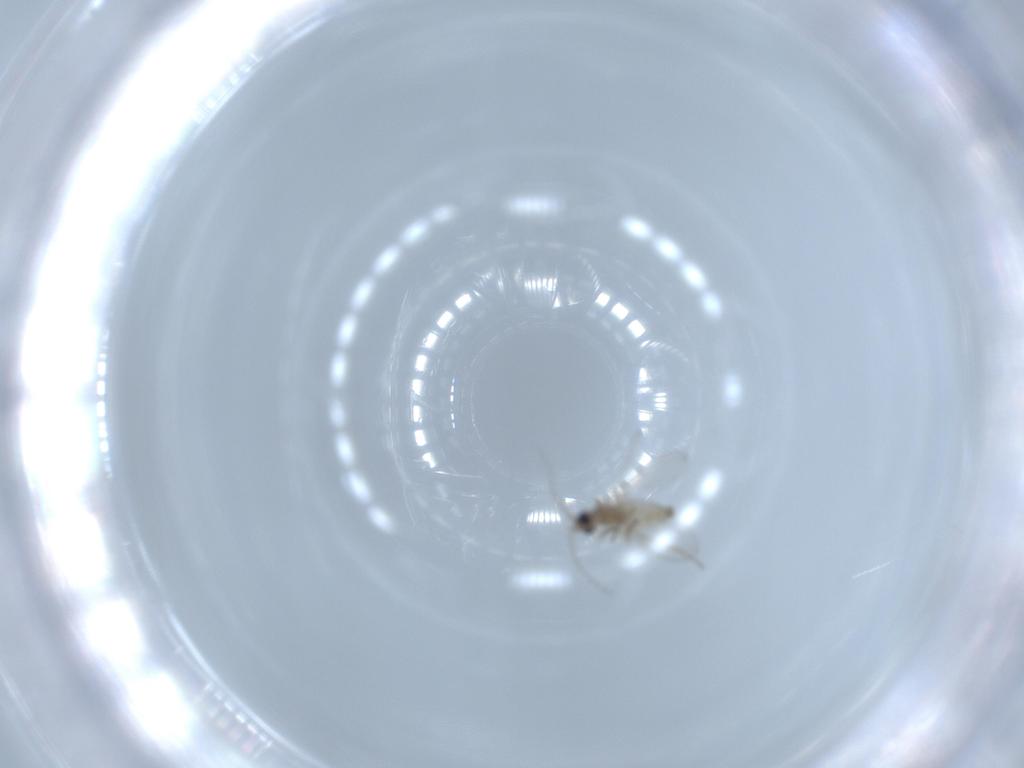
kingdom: Animalia
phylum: Arthropoda
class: Insecta
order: Diptera
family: Cecidomyiidae
